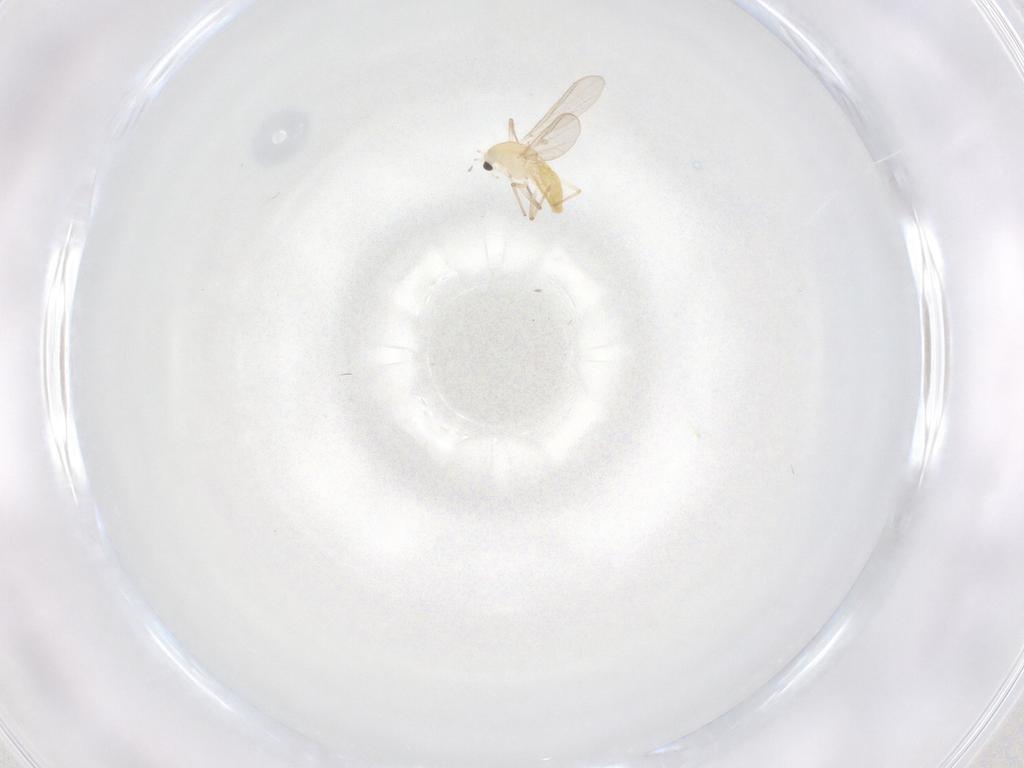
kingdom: Animalia
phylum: Arthropoda
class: Insecta
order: Diptera
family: Chironomidae
